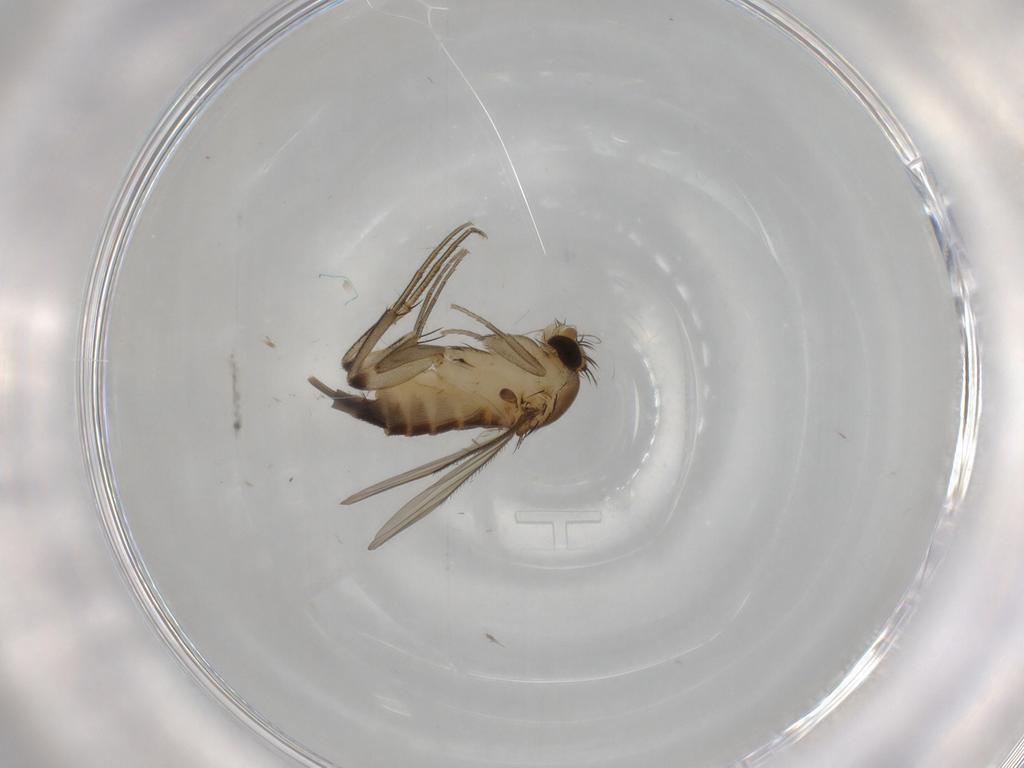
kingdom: Animalia
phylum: Arthropoda
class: Insecta
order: Diptera
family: Phoridae
